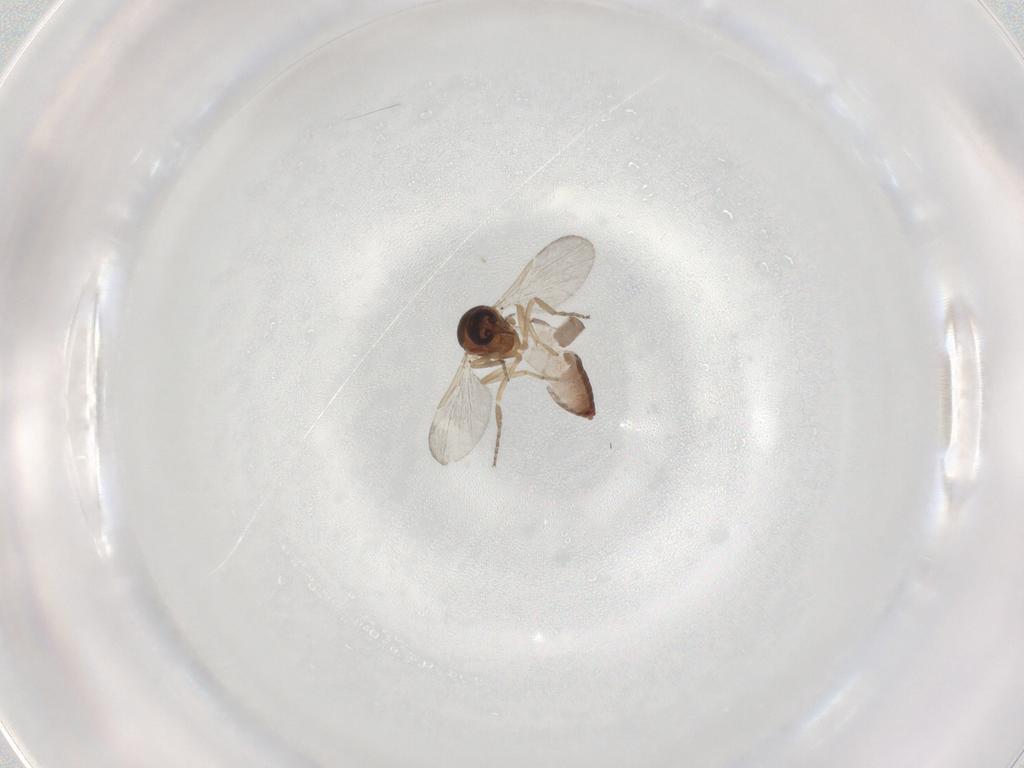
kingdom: Animalia
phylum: Arthropoda
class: Insecta
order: Diptera
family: Ceratopogonidae
